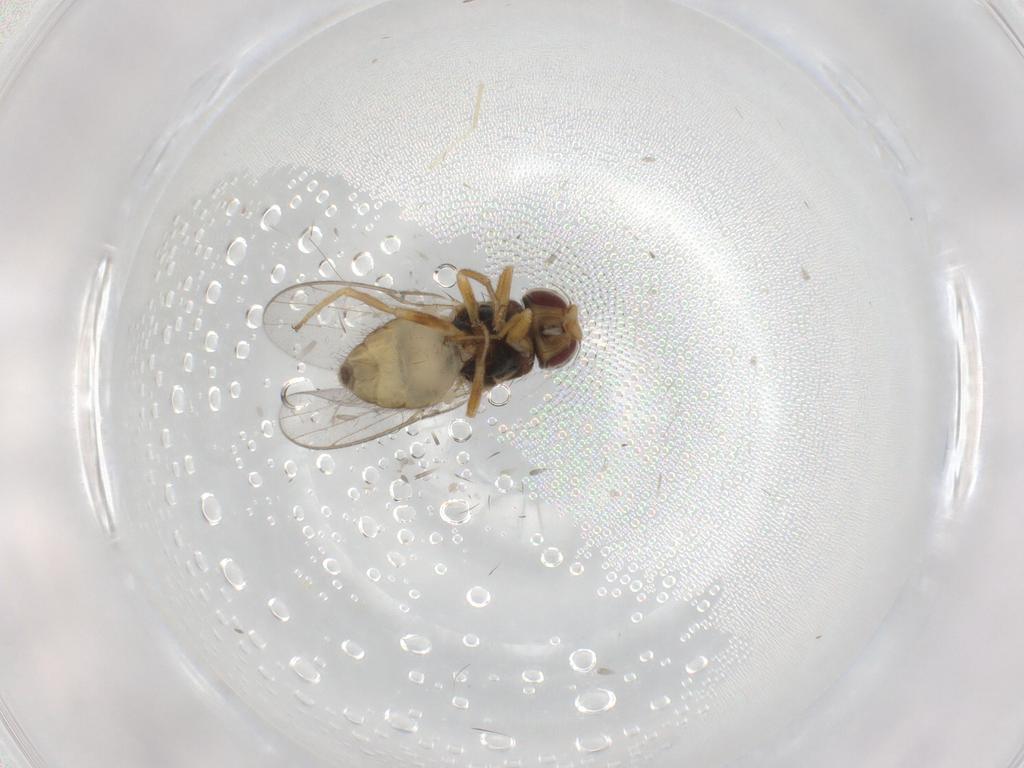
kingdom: Animalia
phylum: Arthropoda
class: Insecta
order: Diptera
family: Chloropidae
